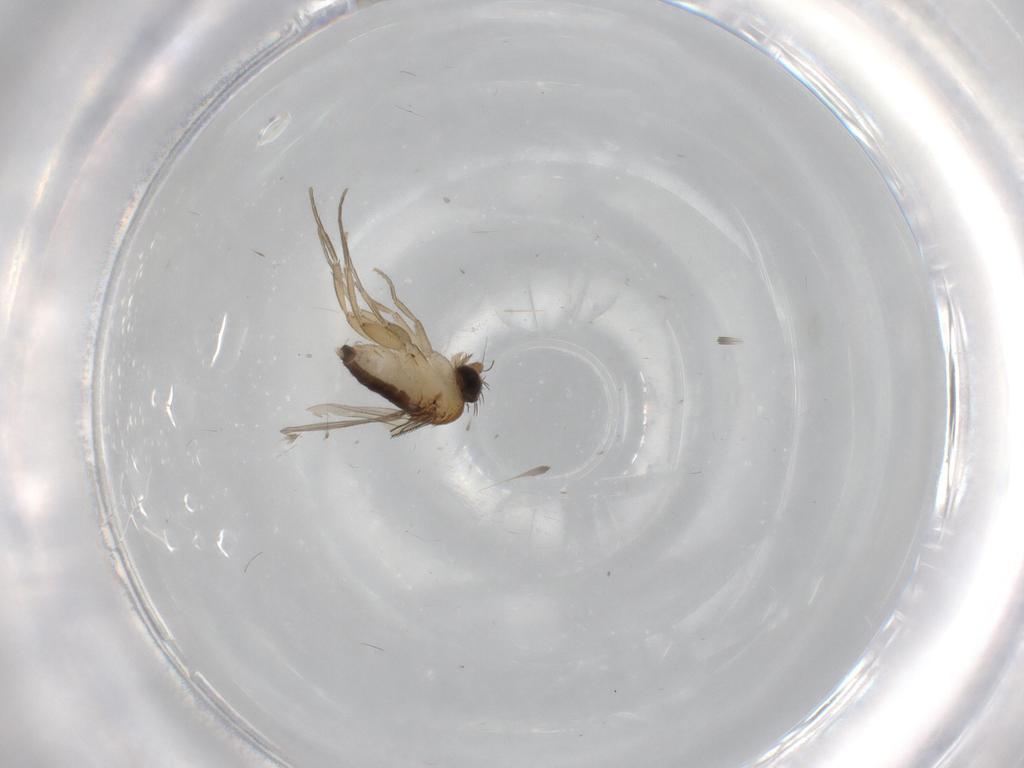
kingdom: Animalia
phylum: Arthropoda
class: Insecta
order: Diptera
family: Phoridae
